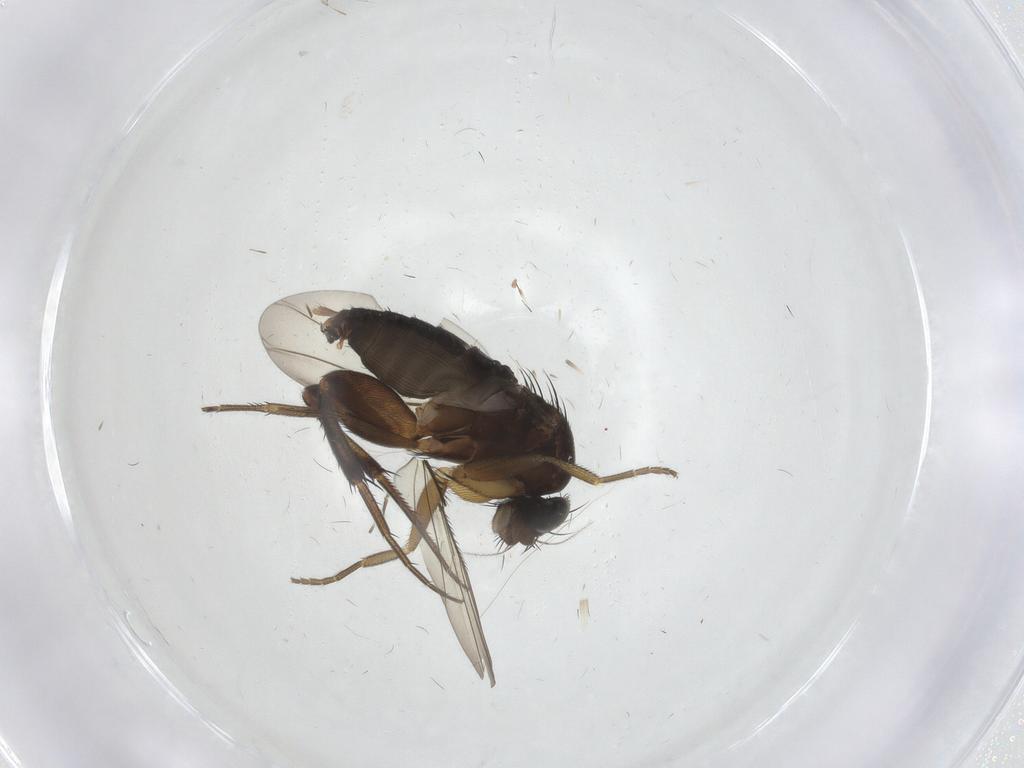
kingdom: Animalia
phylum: Arthropoda
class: Insecta
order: Diptera
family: Phoridae
